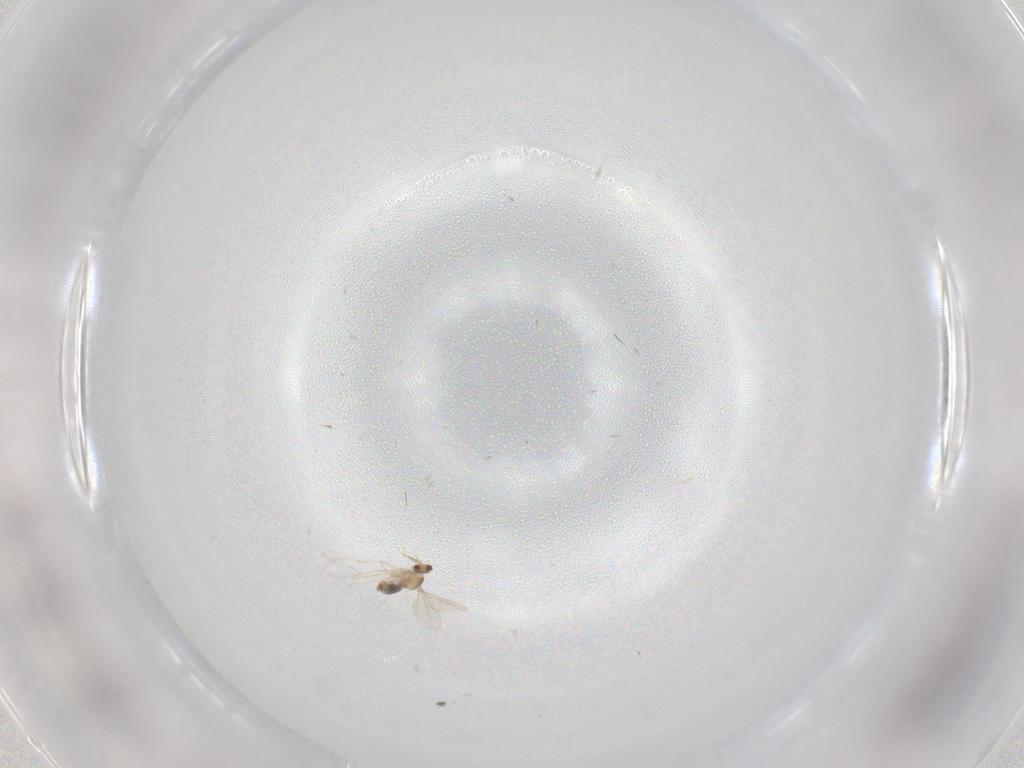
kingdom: Animalia
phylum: Arthropoda
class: Insecta
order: Diptera
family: Cecidomyiidae
